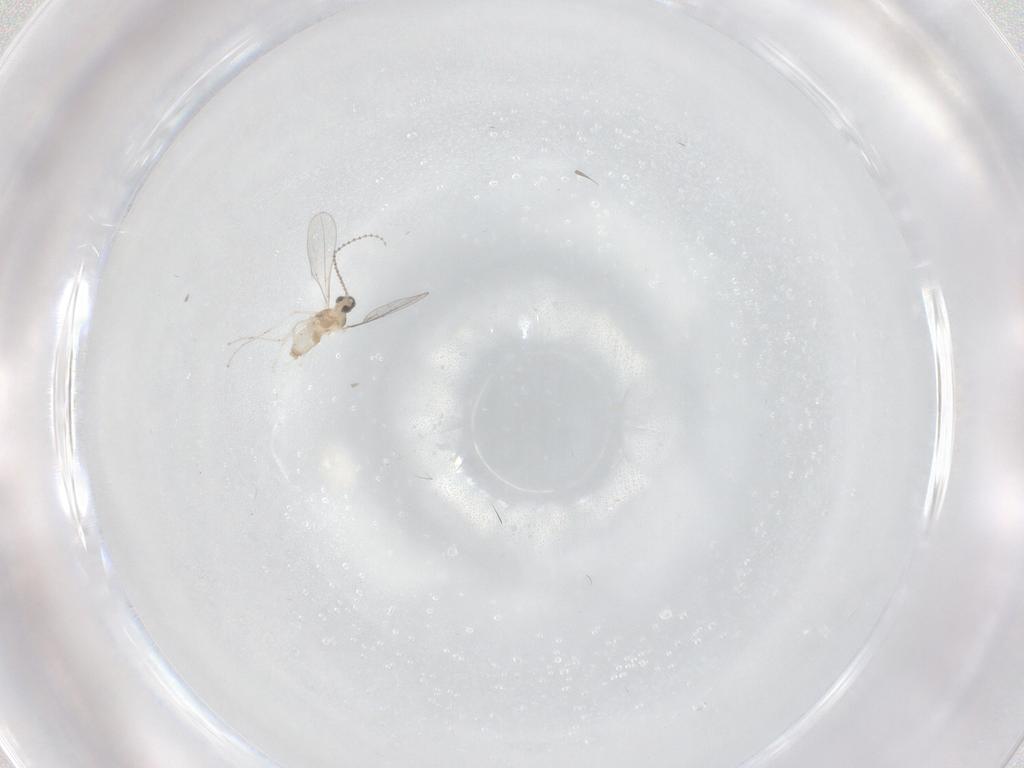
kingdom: Animalia
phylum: Arthropoda
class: Insecta
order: Diptera
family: Cecidomyiidae
